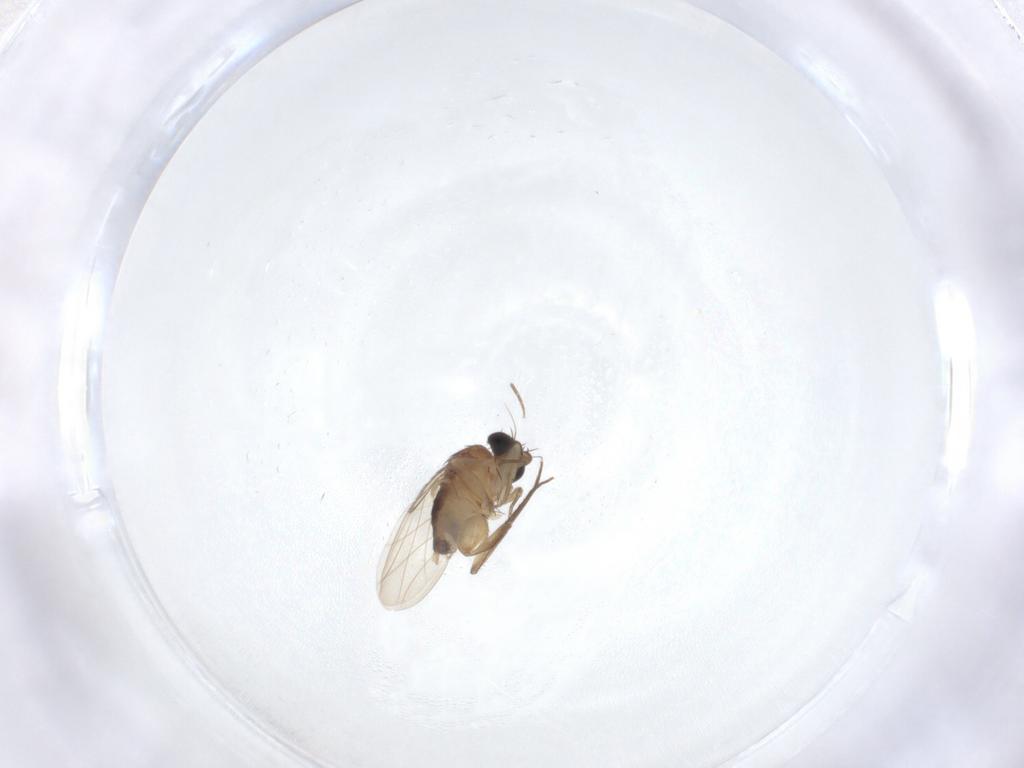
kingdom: Animalia
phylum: Arthropoda
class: Insecta
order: Diptera
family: Phoridae
